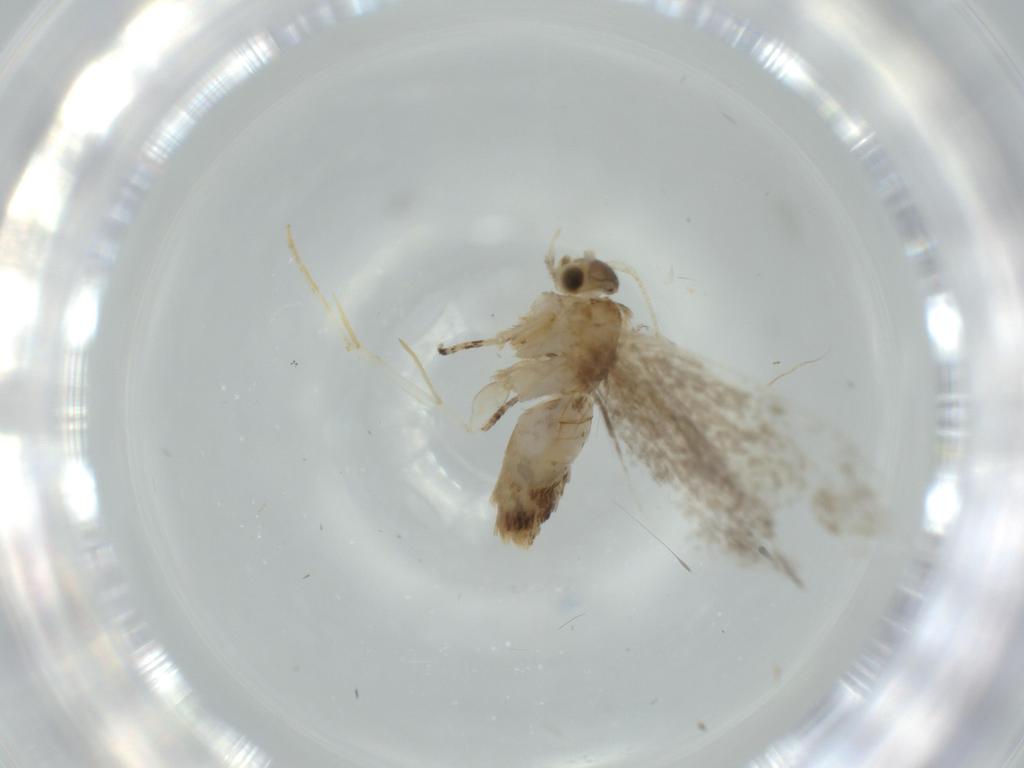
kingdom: Animalia
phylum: Arthropoda
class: Insecta
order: Lepidoptera
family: Tineidae
